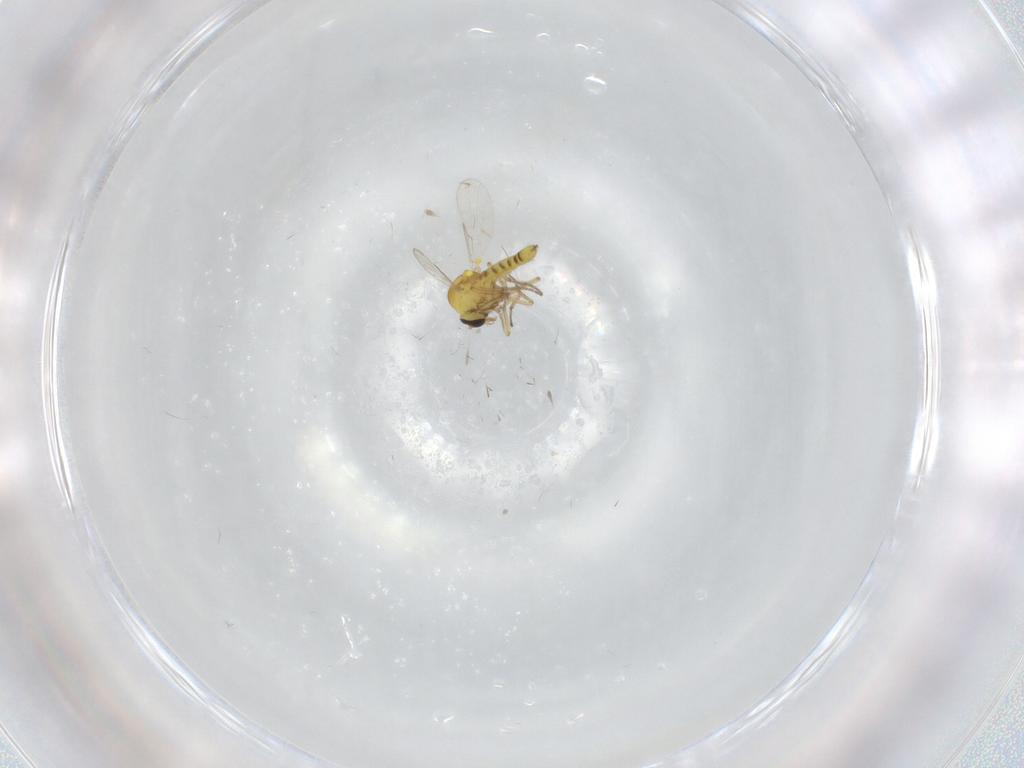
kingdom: Animalia
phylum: Arthropoda
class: Insecta
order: Diptera
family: Ceratopogonidae
